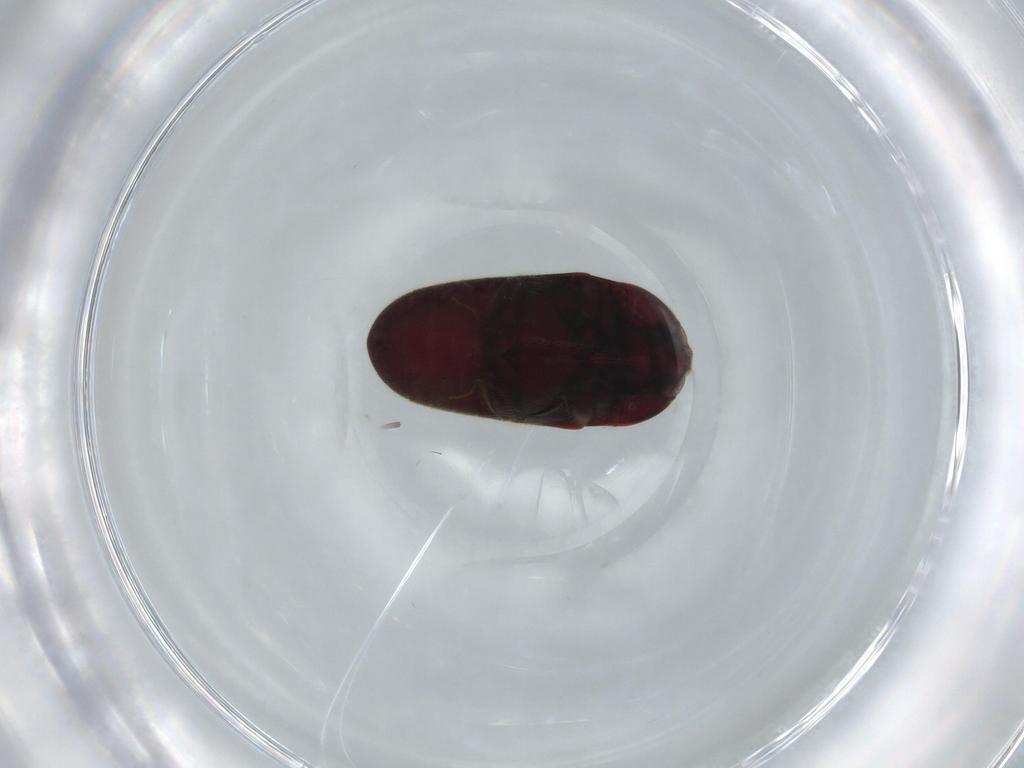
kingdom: Animalia
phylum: Arthropoda
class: Insecta
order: Coleoptera
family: Throscidae
